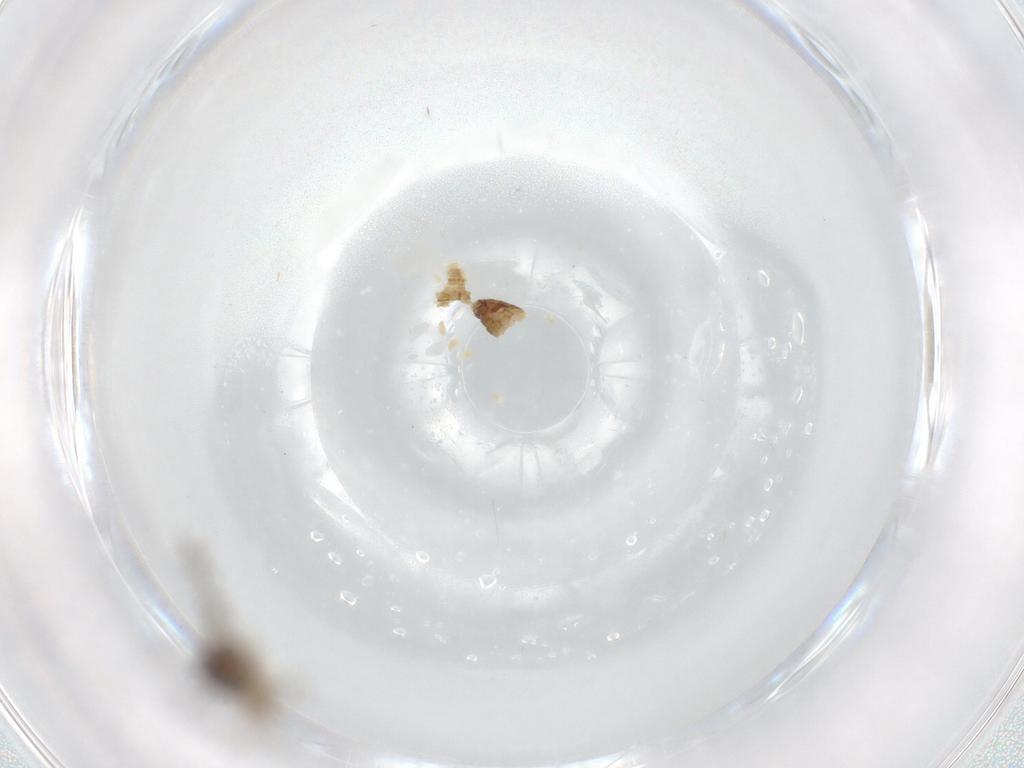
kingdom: Animalia
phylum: Arthropoda
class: Insecta
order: Diptera
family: Chironomidae
